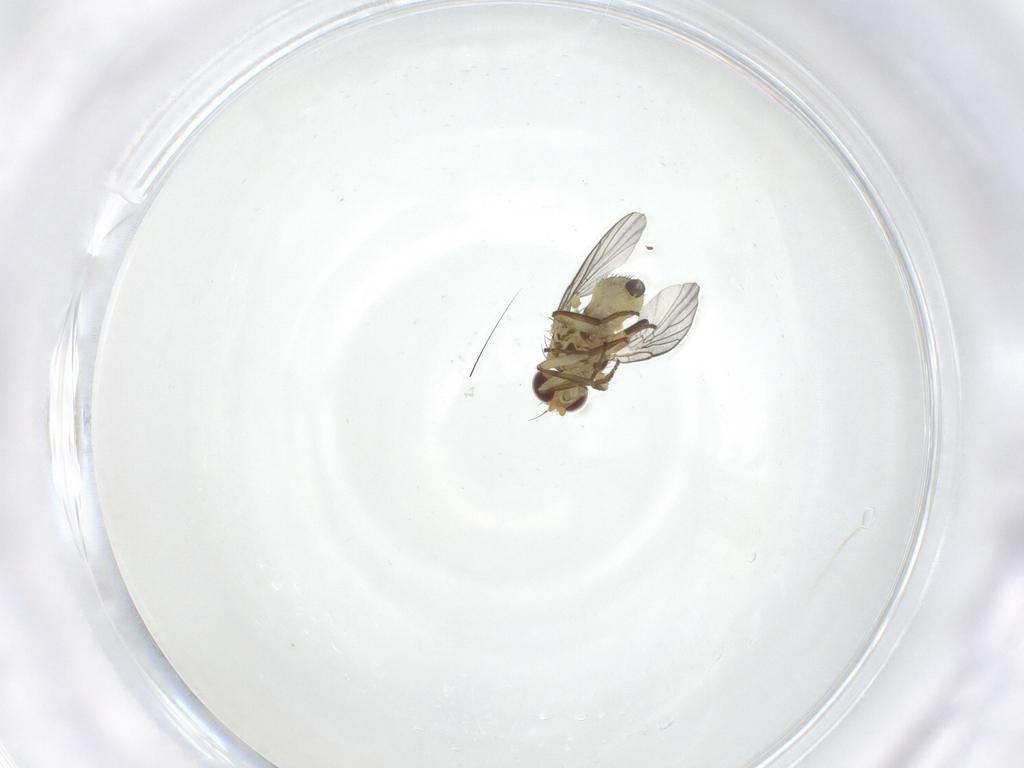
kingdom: Animalia
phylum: Arthropoda
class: Insecta
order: Diptera
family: Agromyzidae
